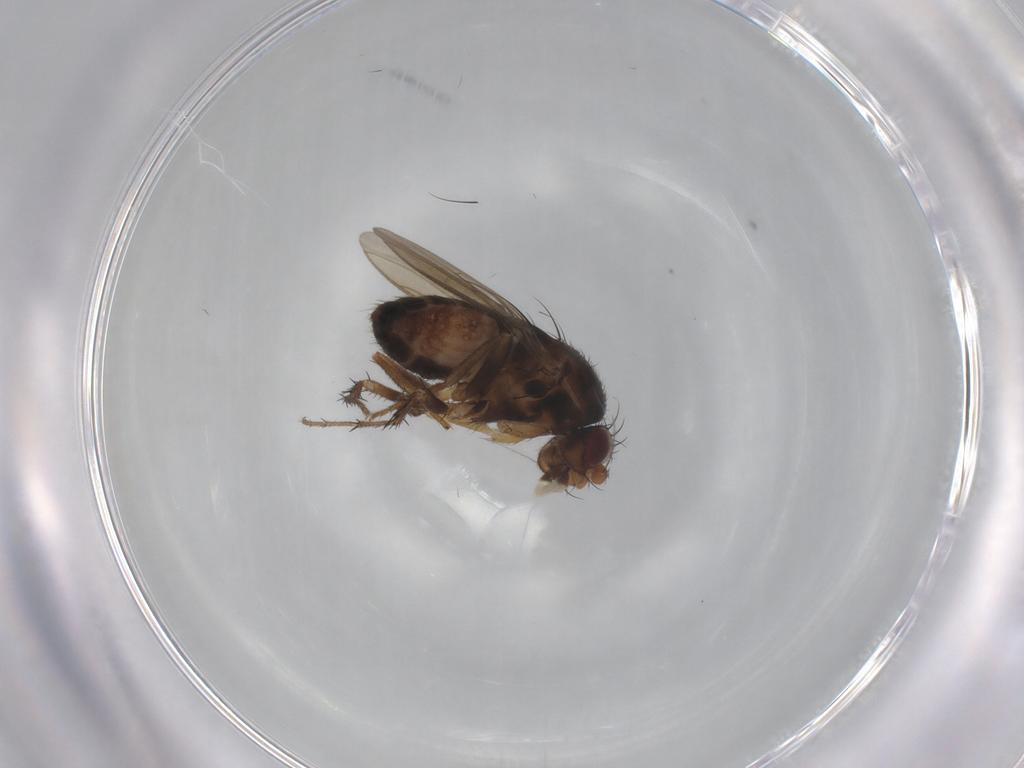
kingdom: Animalia
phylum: Arthropoda
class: Insecta
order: Diptera
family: Sphaeroceridae
